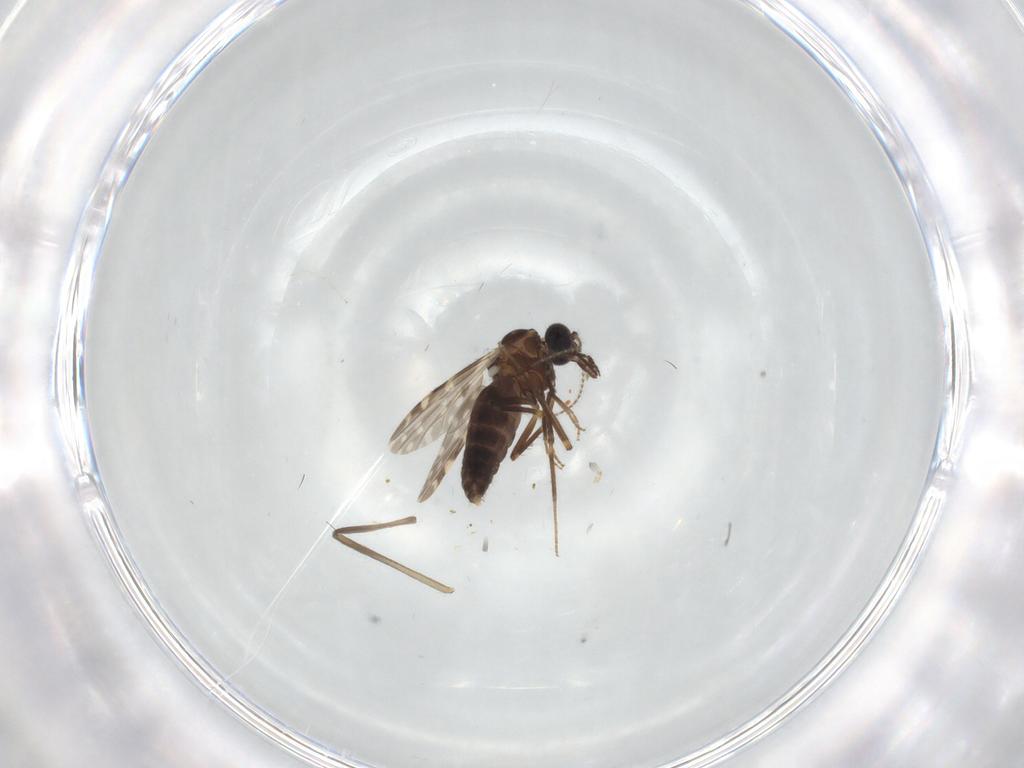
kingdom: Animalia
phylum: Arthropoda
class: Insecta
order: Diptera
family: Ceratopogonidae
